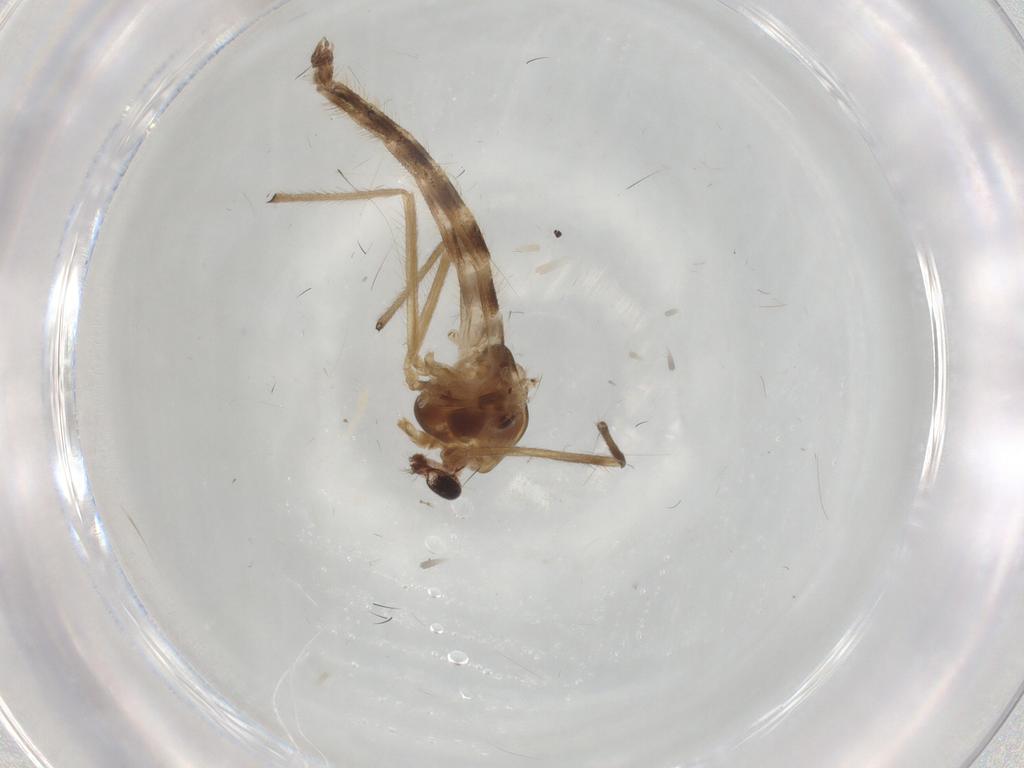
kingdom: Animalia
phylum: Arthropoda
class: Insecta
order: Diptera
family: Chironomidae
